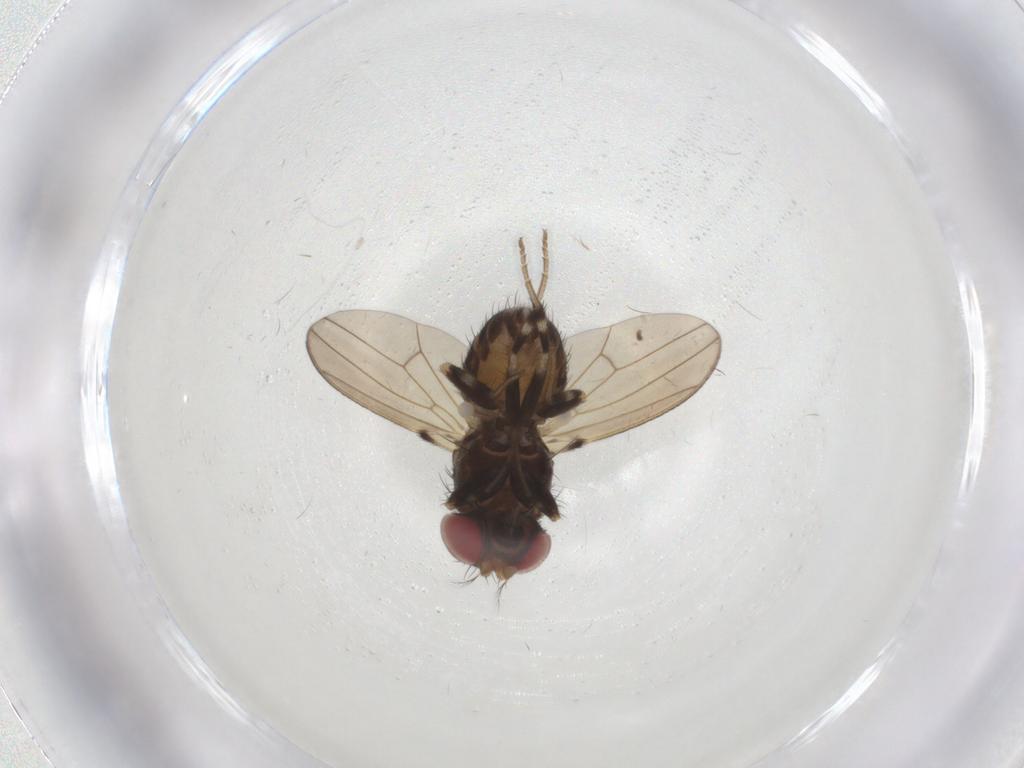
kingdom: Animalia
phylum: Arthropoda
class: Insecta
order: Diptera
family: Drosophilidae
